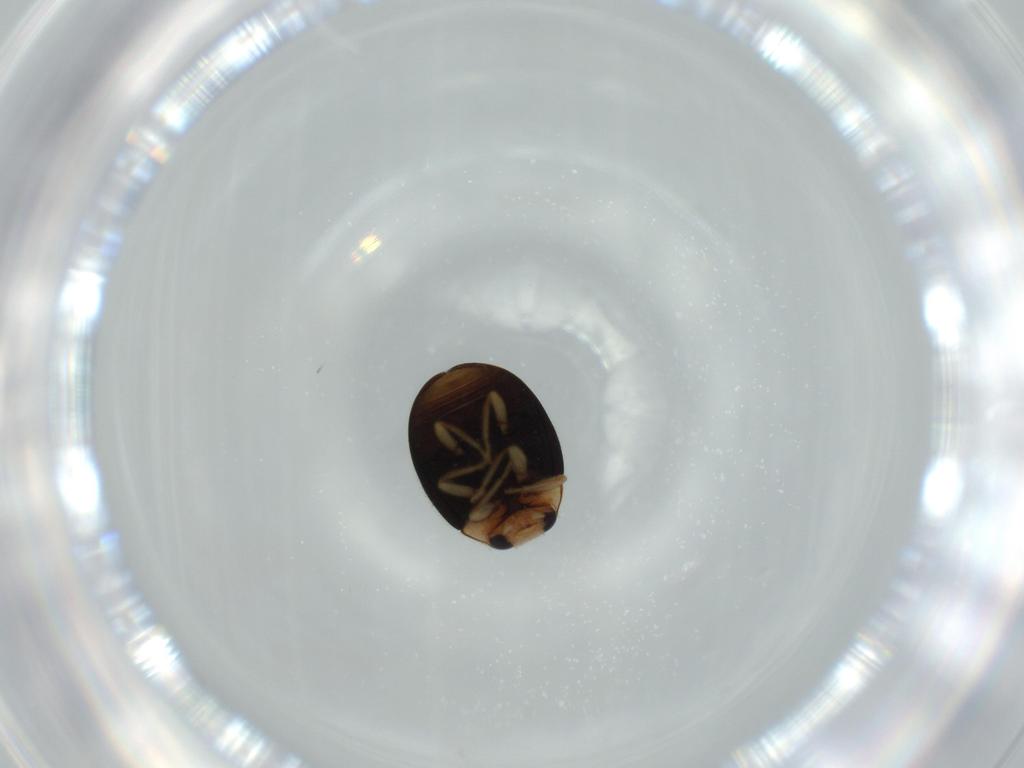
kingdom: Animalia
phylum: Arthropoda
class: Insecta
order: Coleoptera
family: Coccinellidae
